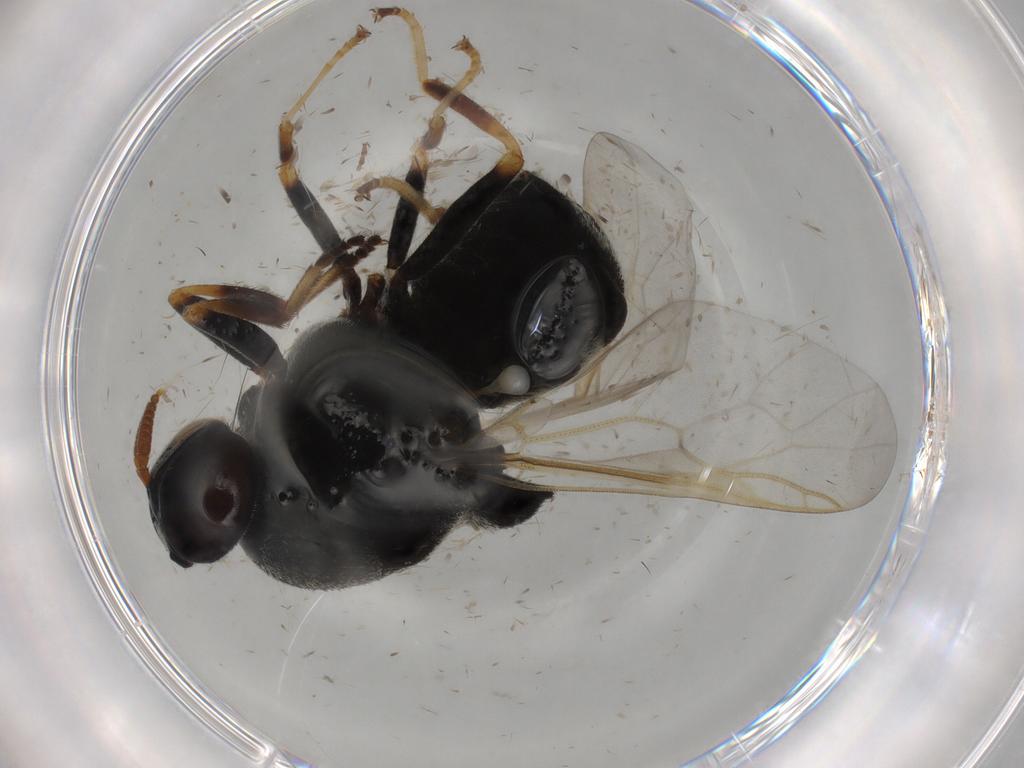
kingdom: Animalia
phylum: Arthropoda
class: Insecta
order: Diptera
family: Stratiomyidae
